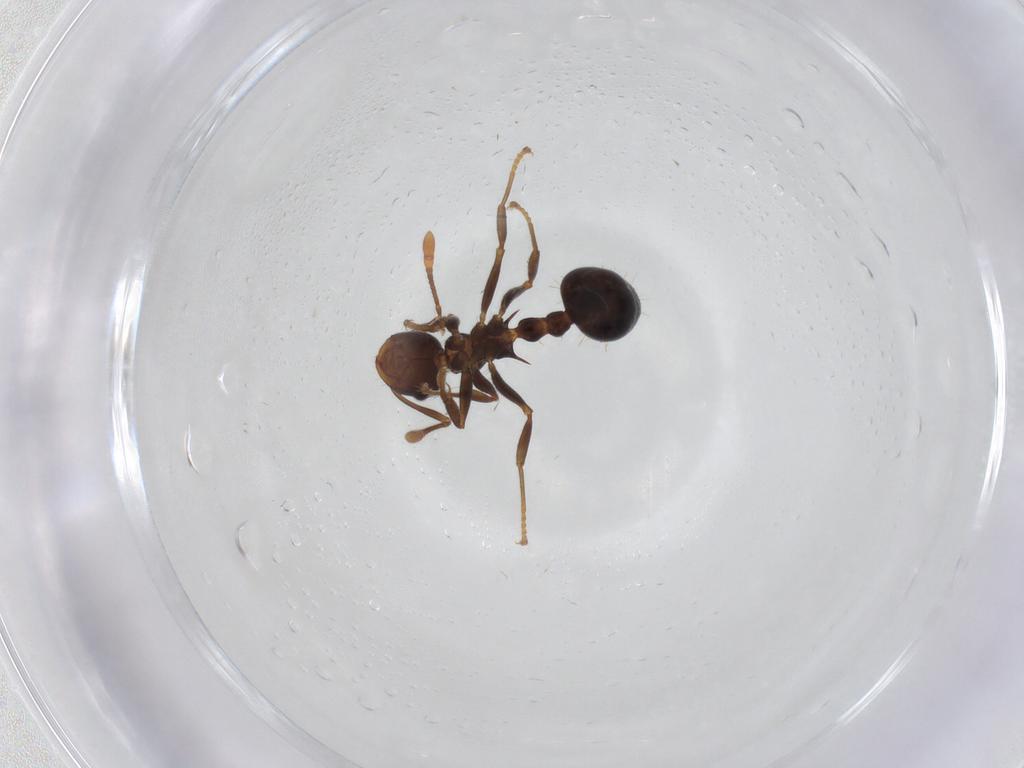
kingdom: Animalia
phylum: Arthropoda
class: Insecta
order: Hymenoptera
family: Formicidae
